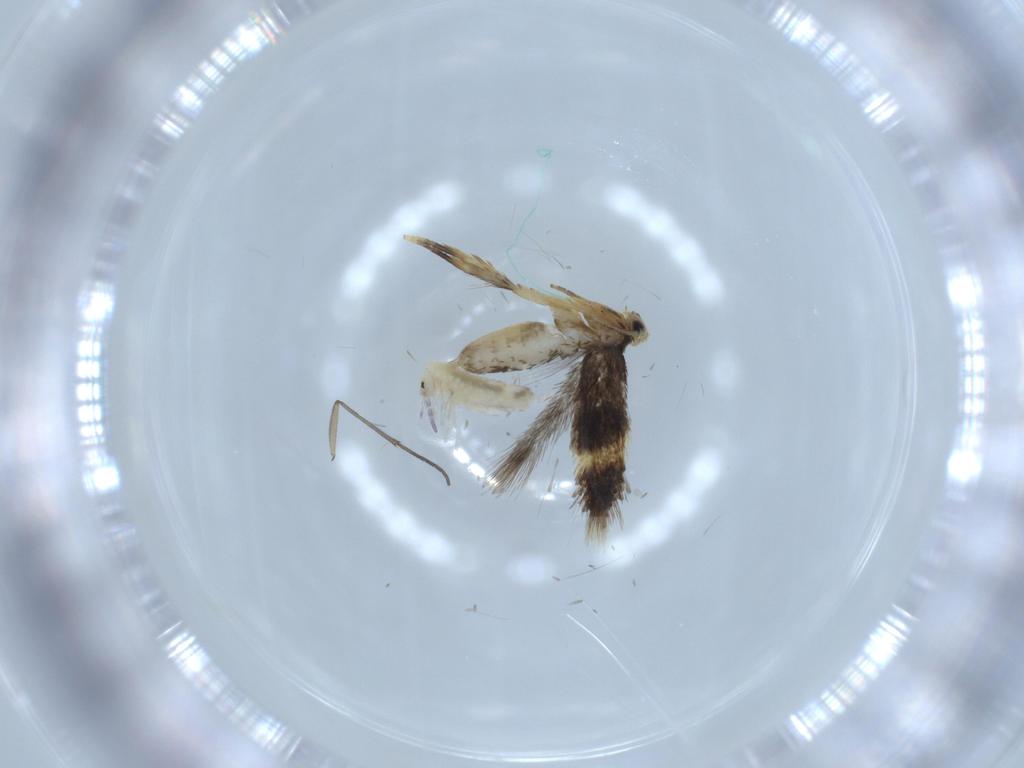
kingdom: Animalia
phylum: Arthropoda
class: Insecta
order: Lepidoptera
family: Nepticulidae
